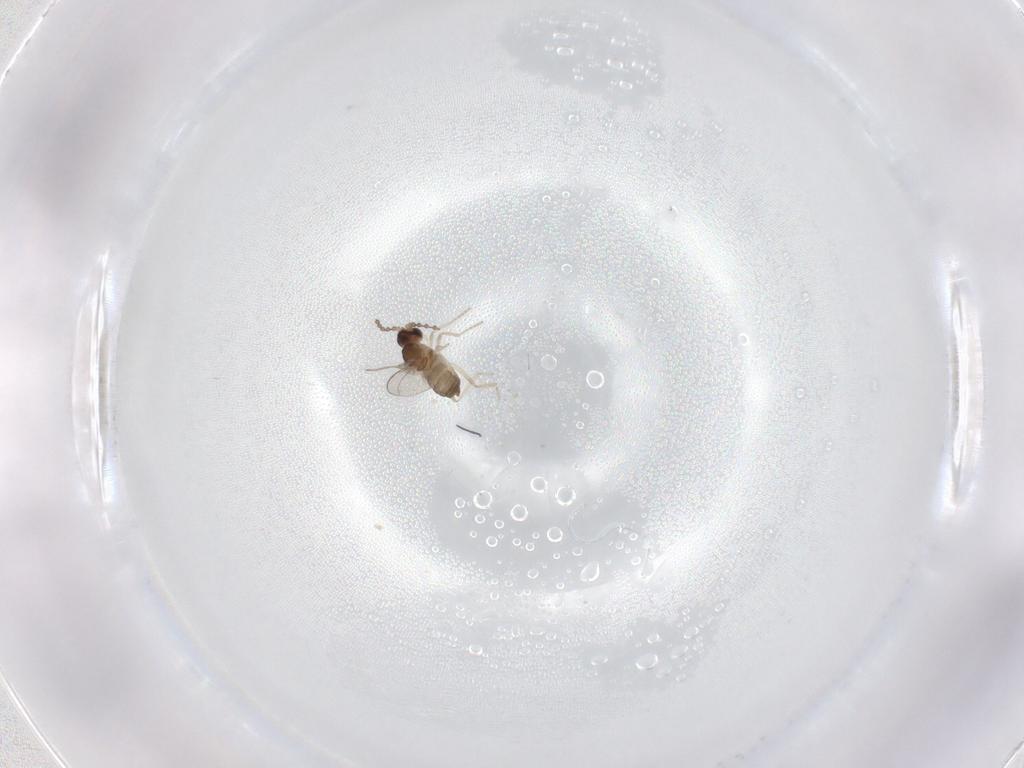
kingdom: Animalia
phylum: Arthropoda
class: Insecta
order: Diptera
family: Cecidomyiidae
